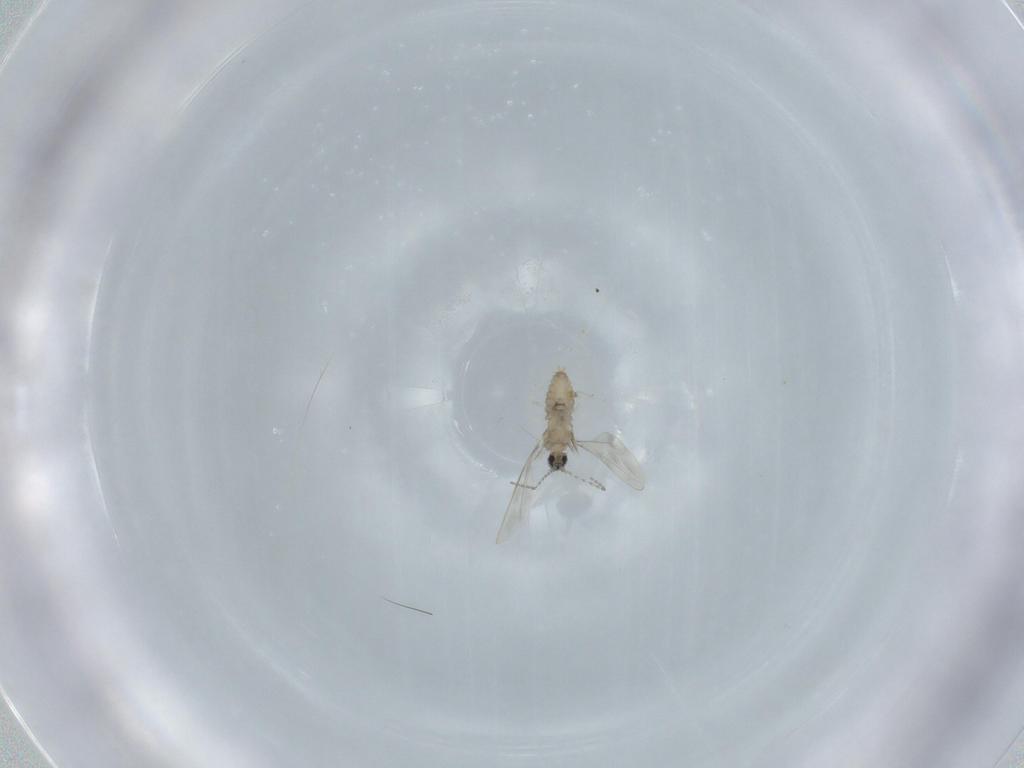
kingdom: Animalia
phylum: Arthropoda
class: Insecta
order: Diptera
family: Cecidomyiidae
